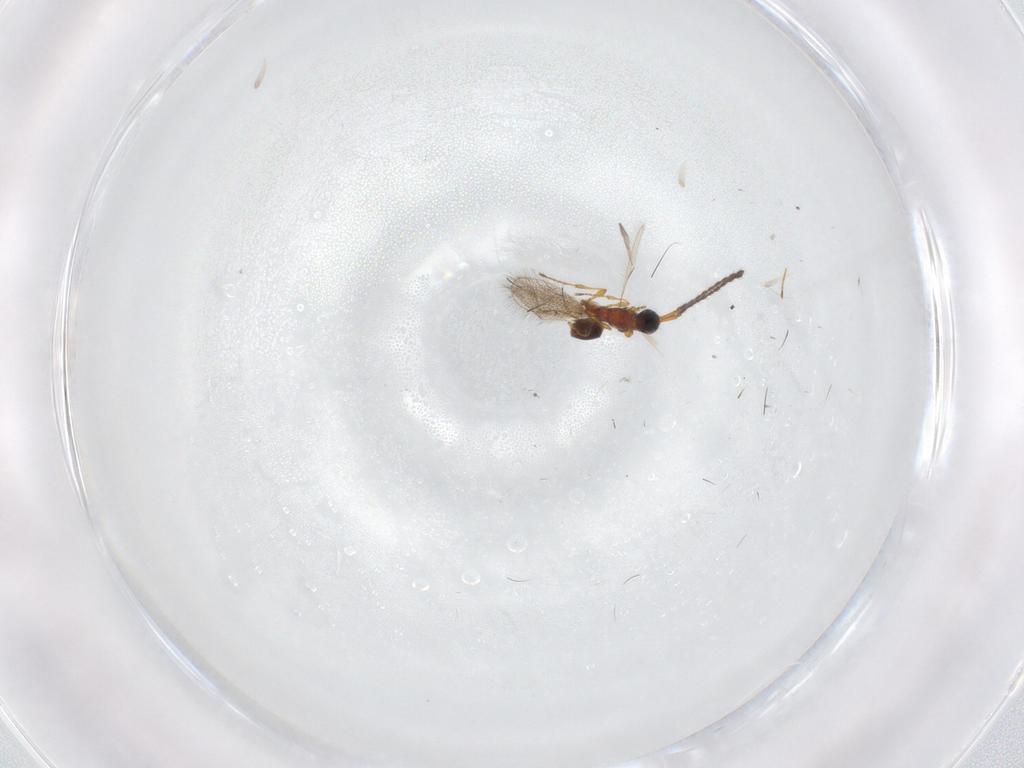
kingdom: Animalia
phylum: Arthropoda
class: Insecta
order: Hymenoptera
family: Diapriidae
